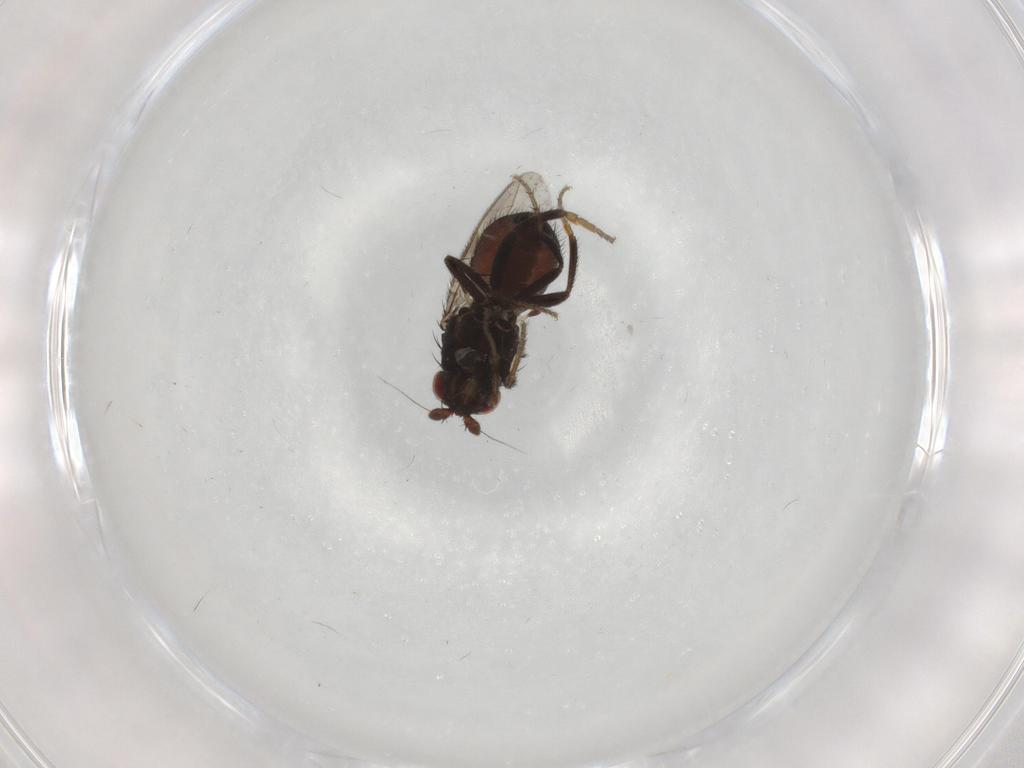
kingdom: Animalia
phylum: Arthropoda
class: Insecta
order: Diptera
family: Sphaeroceridae
